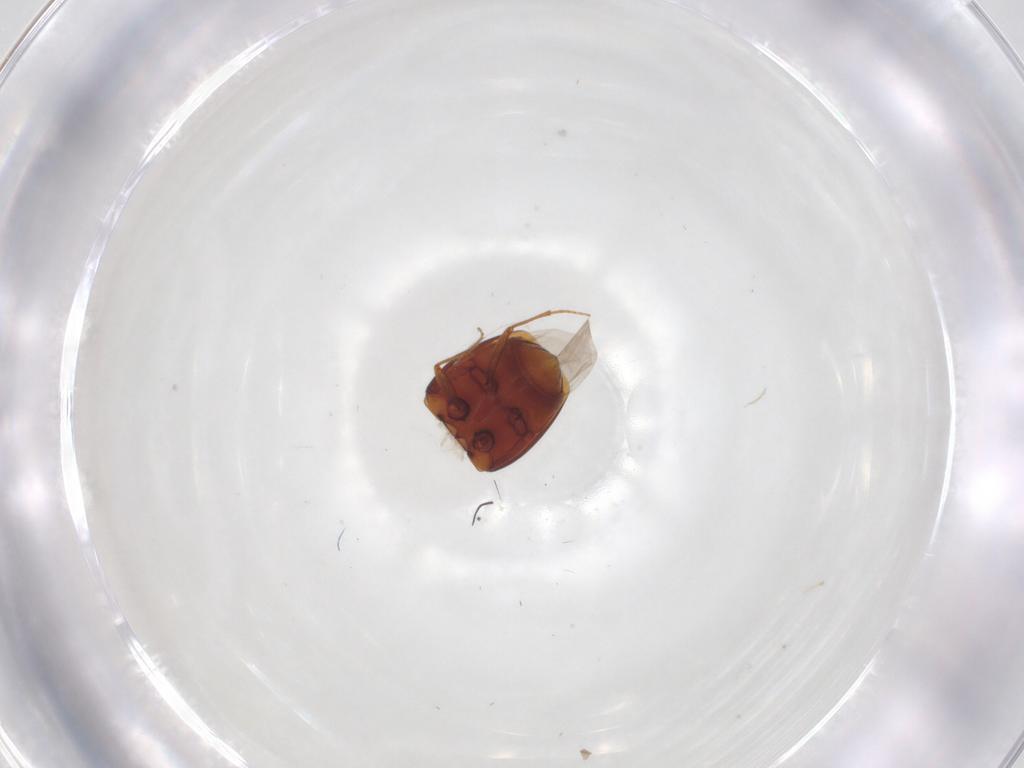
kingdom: Animalia
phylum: Arthropoda
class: Insecta
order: Coleoptera
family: Staphylinidae
